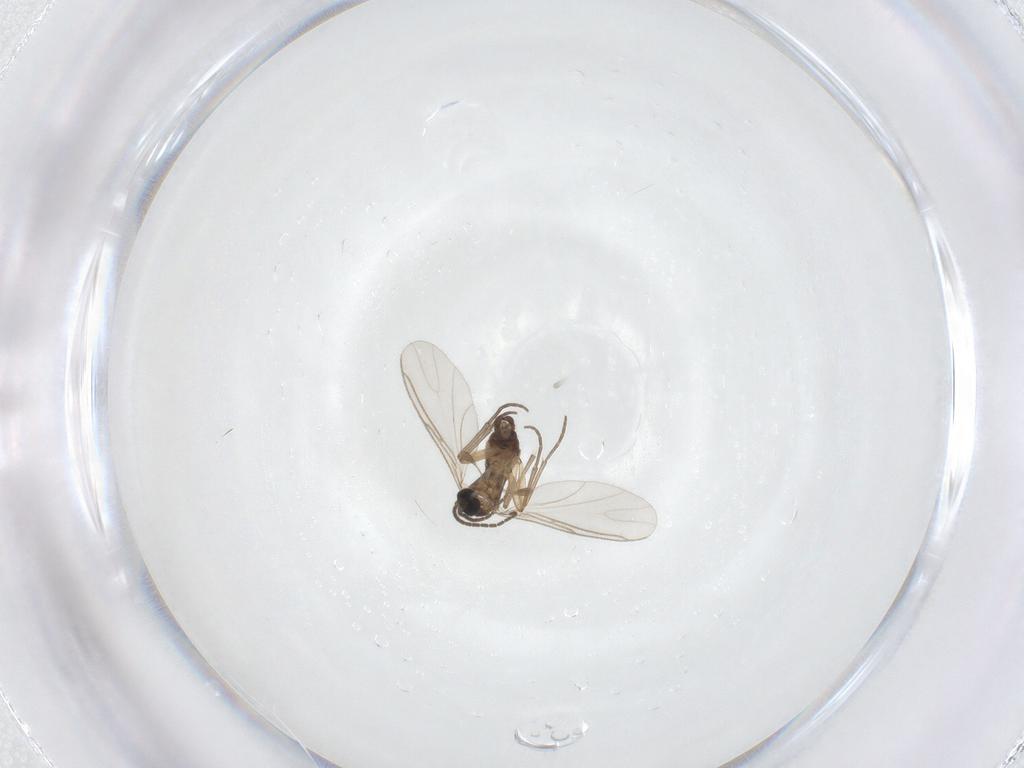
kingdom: Animalia
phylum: Arthropoda
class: Insecta
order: Diptera
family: Sciaridae
